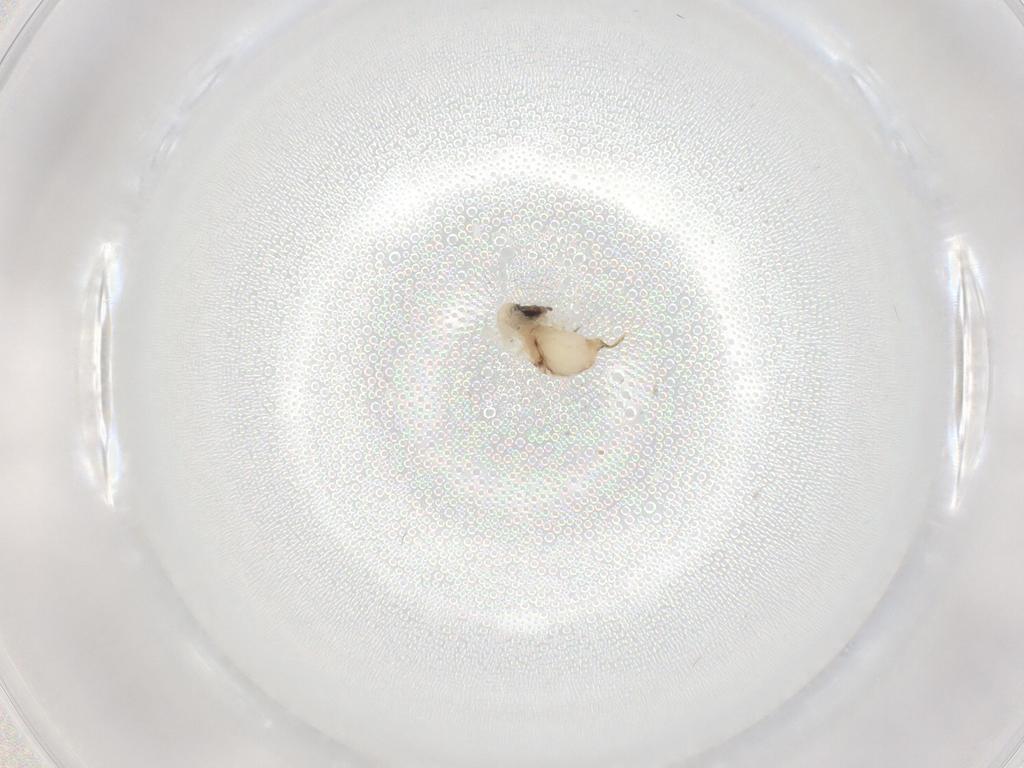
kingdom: Animalia
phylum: Arthropoda
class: Insecta
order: Diptera
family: Psychodidae
